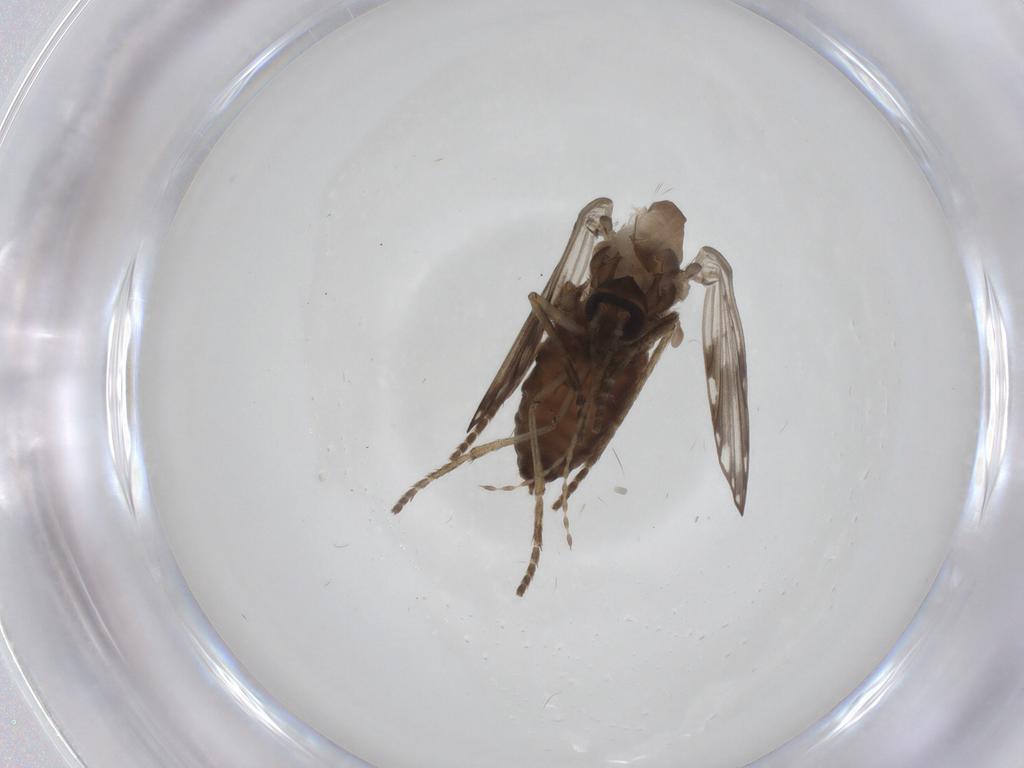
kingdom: Animalia
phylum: Arthropoda
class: Insecta
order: Diptera
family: Psychodidae
